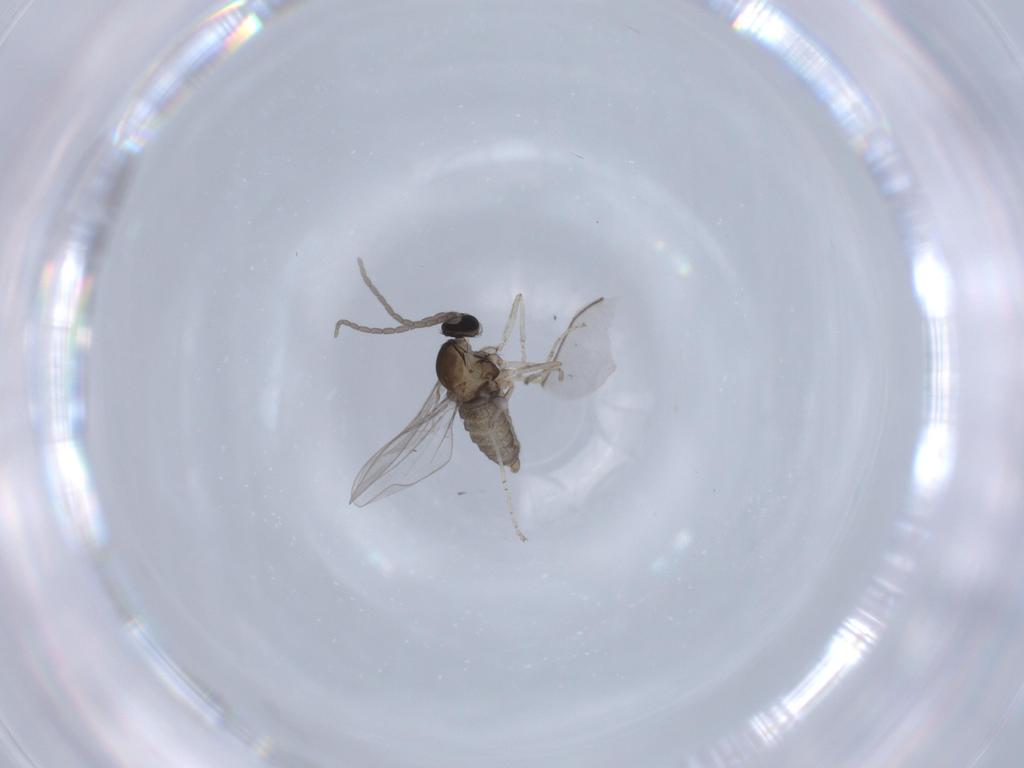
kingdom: Animalia
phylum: Arthropoda
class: Insecta
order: Diptera
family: Cecidomyiidae
